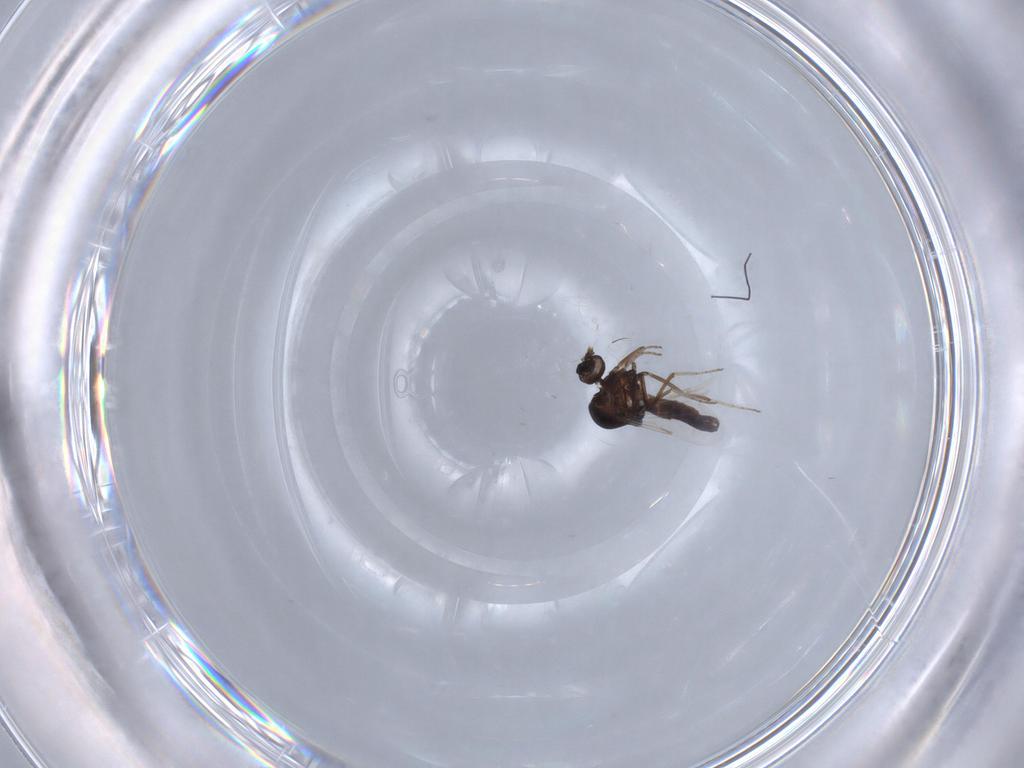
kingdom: Animalia
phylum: Arthropoda
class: Insecta
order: Diptera
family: Ceratopogonidae
